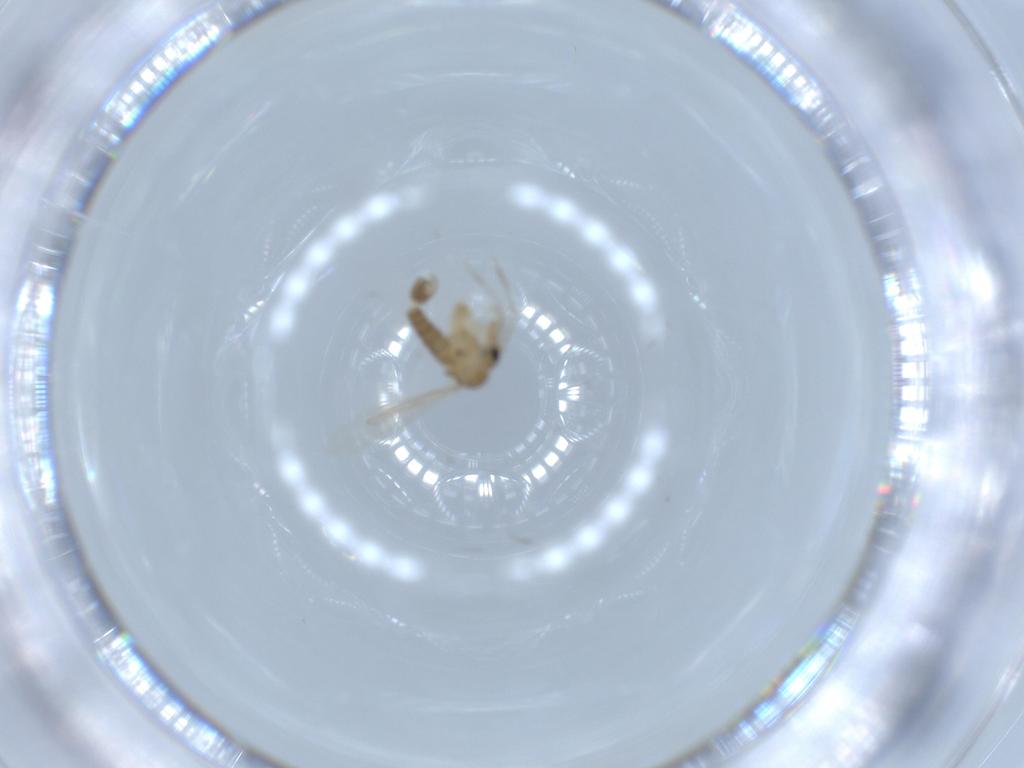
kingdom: Animalia
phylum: Arthropoda
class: Insecta
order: Diptera
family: Psychodidae
